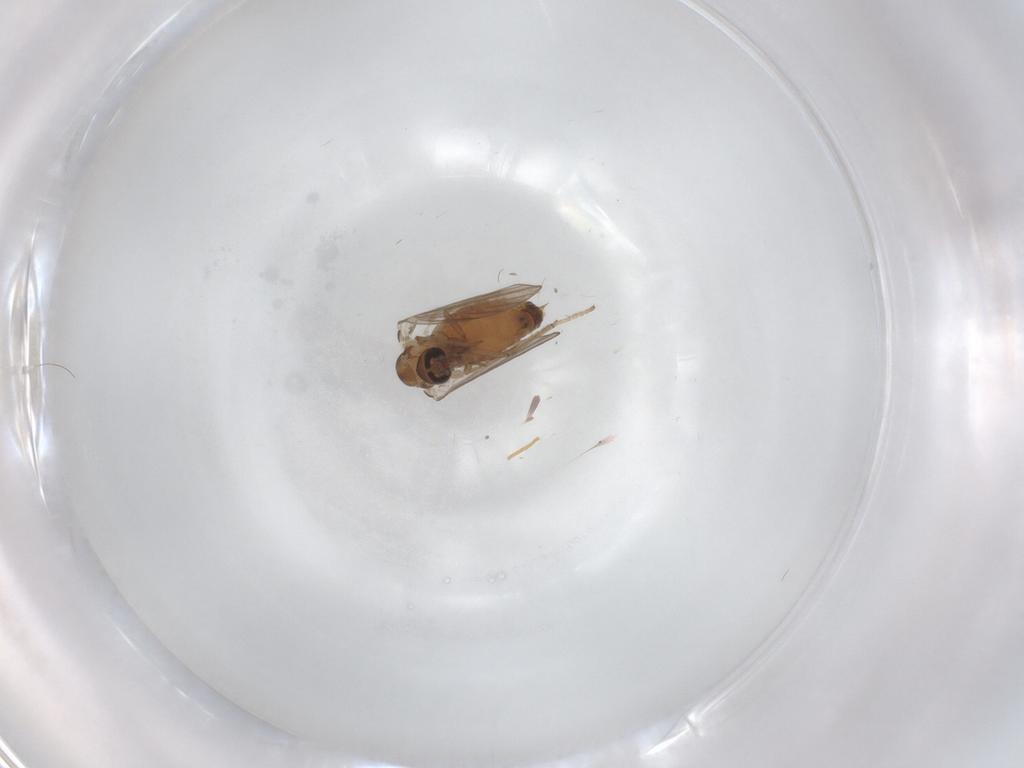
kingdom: Animalia
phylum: Arthropoda
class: Insecta
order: Diptera
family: Psychodidae
